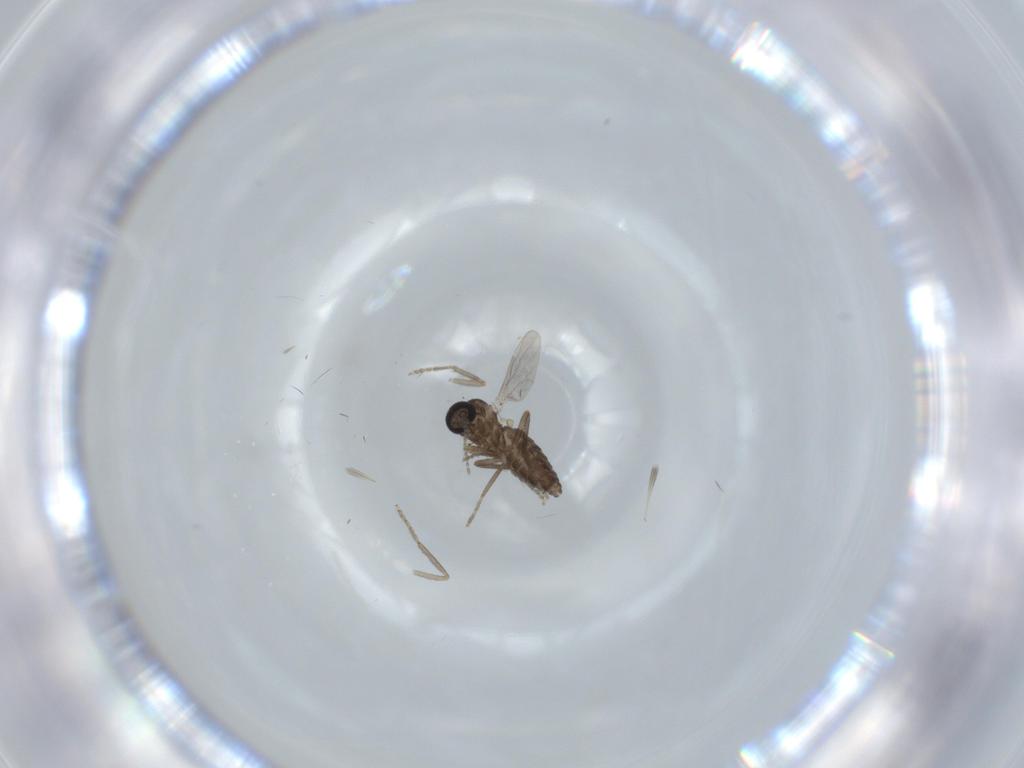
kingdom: Animalia
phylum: Arthropoda
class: Insecta
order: Diptera
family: Ceratopogonidae
